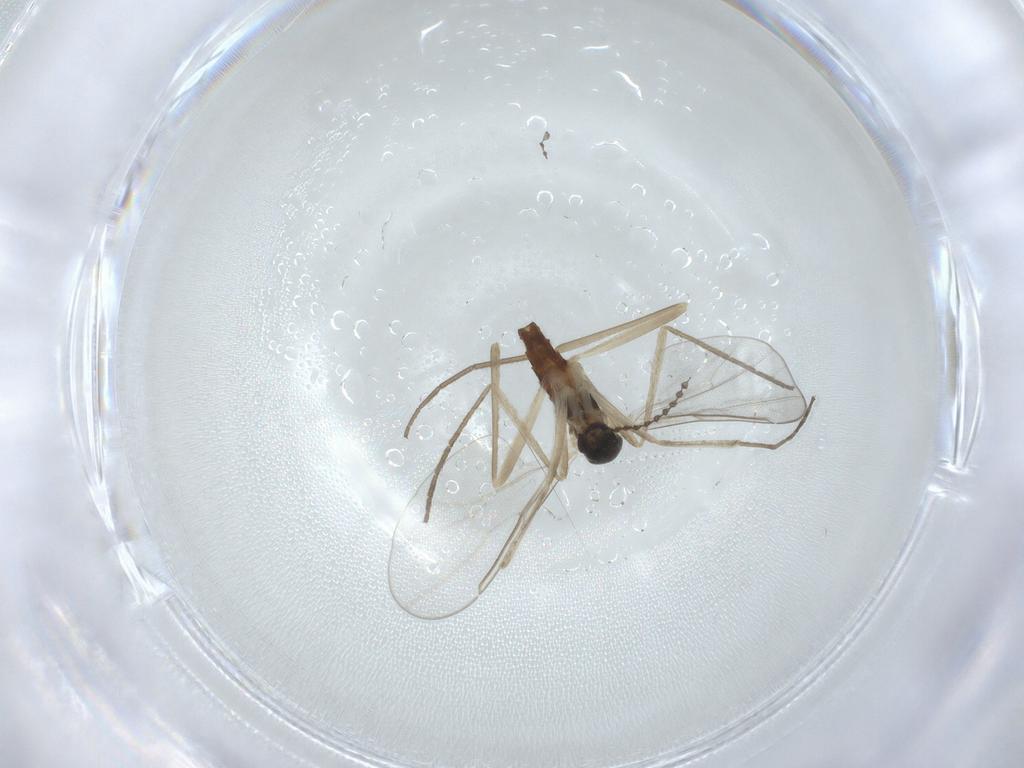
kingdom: Animalia
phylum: Arthropoda
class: Insecta
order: Diptera
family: Cecidomyiidae
